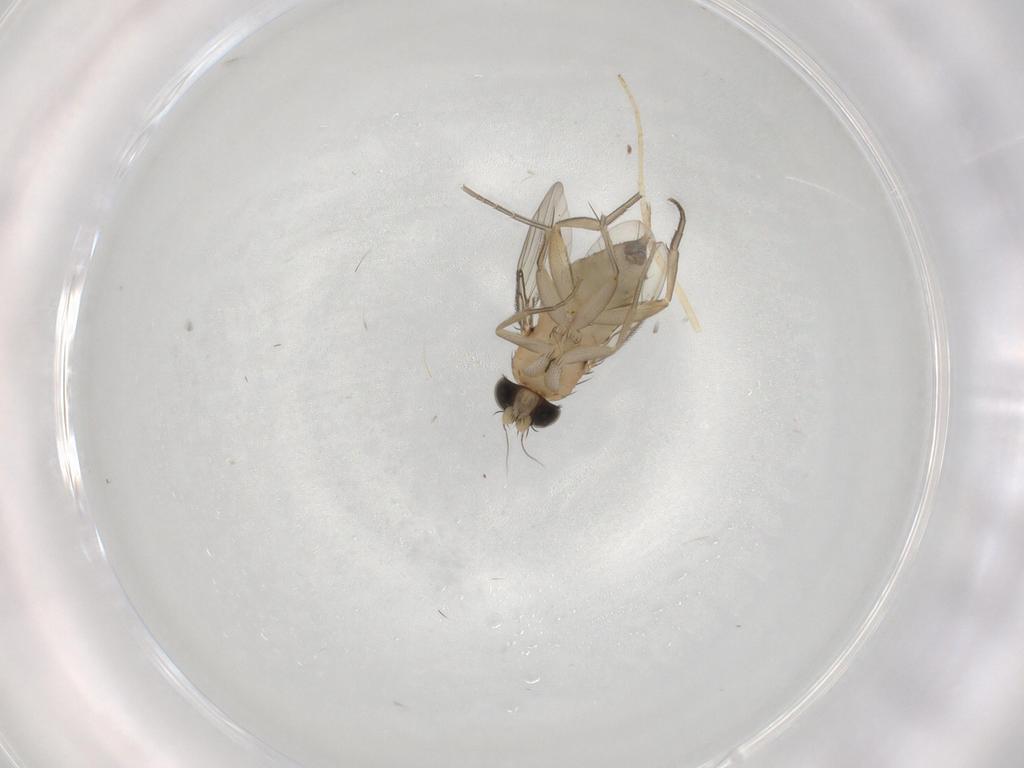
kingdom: Animalia
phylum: Arthropoda
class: Insecta
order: Diptera
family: Phoridae
